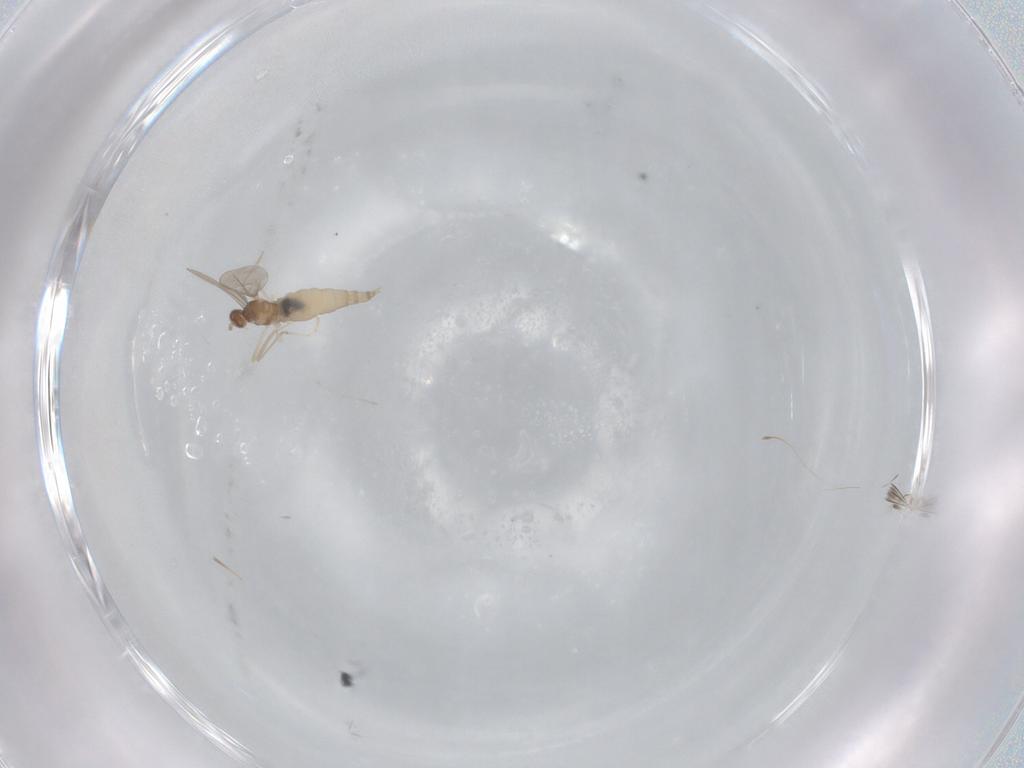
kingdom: Animalia
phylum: Arthropoda
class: Insecta
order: Diptera
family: Cecidomyiidae
